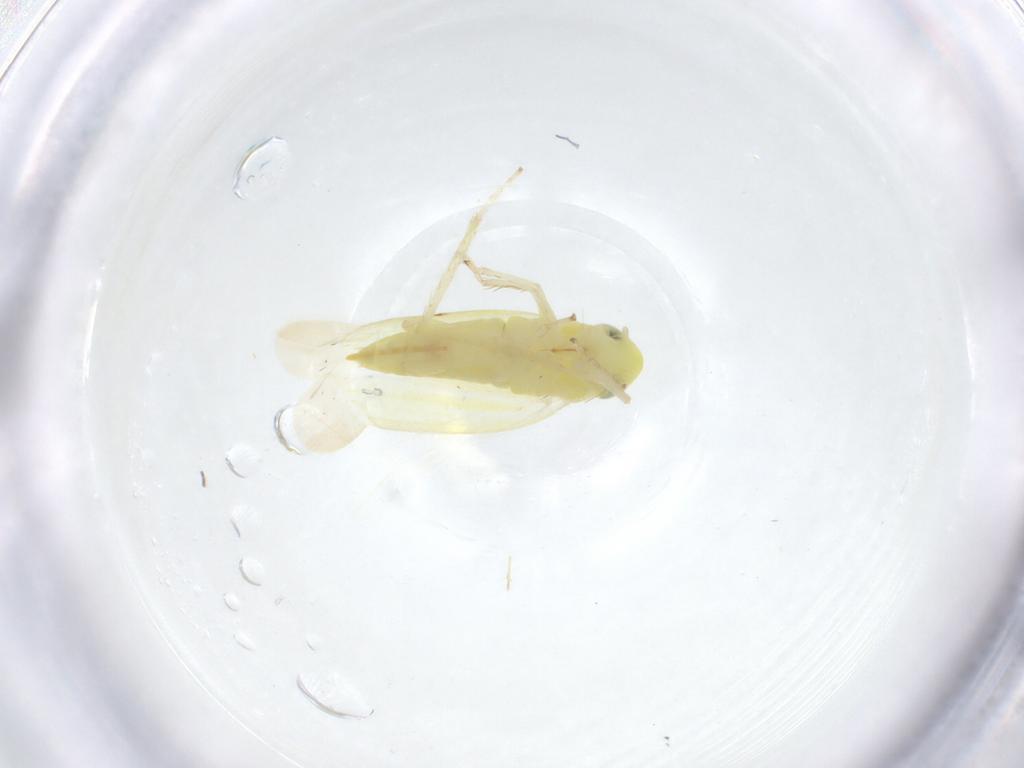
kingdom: Animalia
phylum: Arthropoda
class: Insecta
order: Hemiptera
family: Cicadellidae
